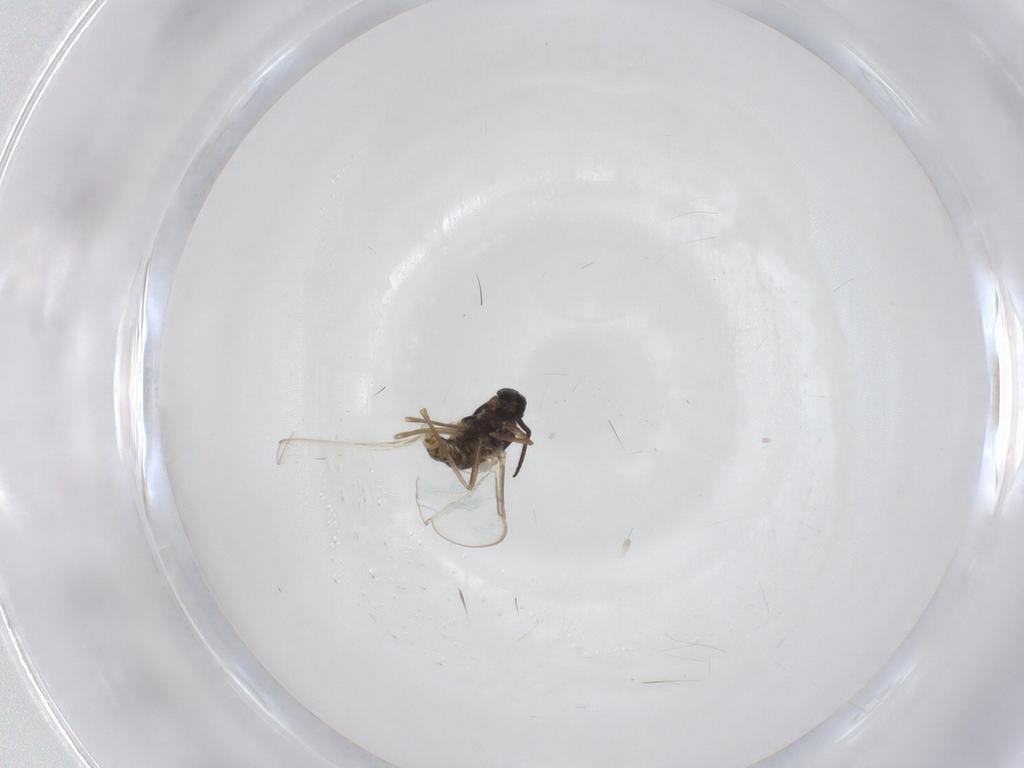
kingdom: Animalia
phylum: Arthropoda
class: Insecta
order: Diptera
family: Cecidomyiidae
